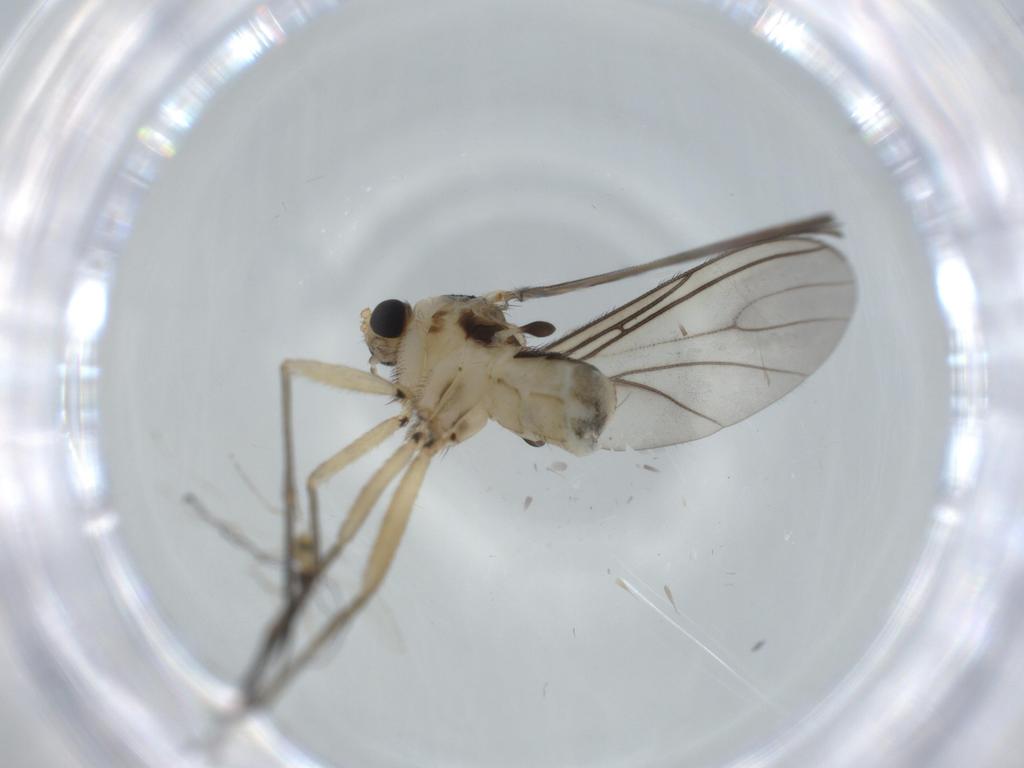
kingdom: Animalia
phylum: Arthropoda
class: Insecta
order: Diptera
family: Sciaridae
